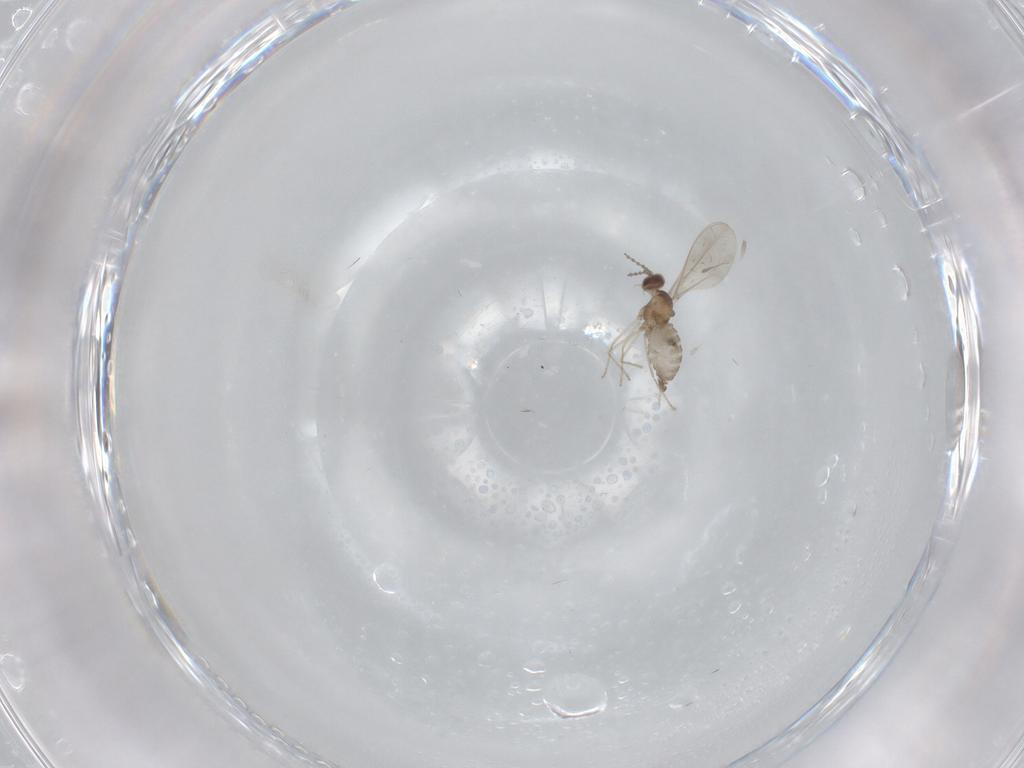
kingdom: Animalia
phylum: Arthropoda
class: Insecta
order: Diptera
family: Cecidomyiidae
